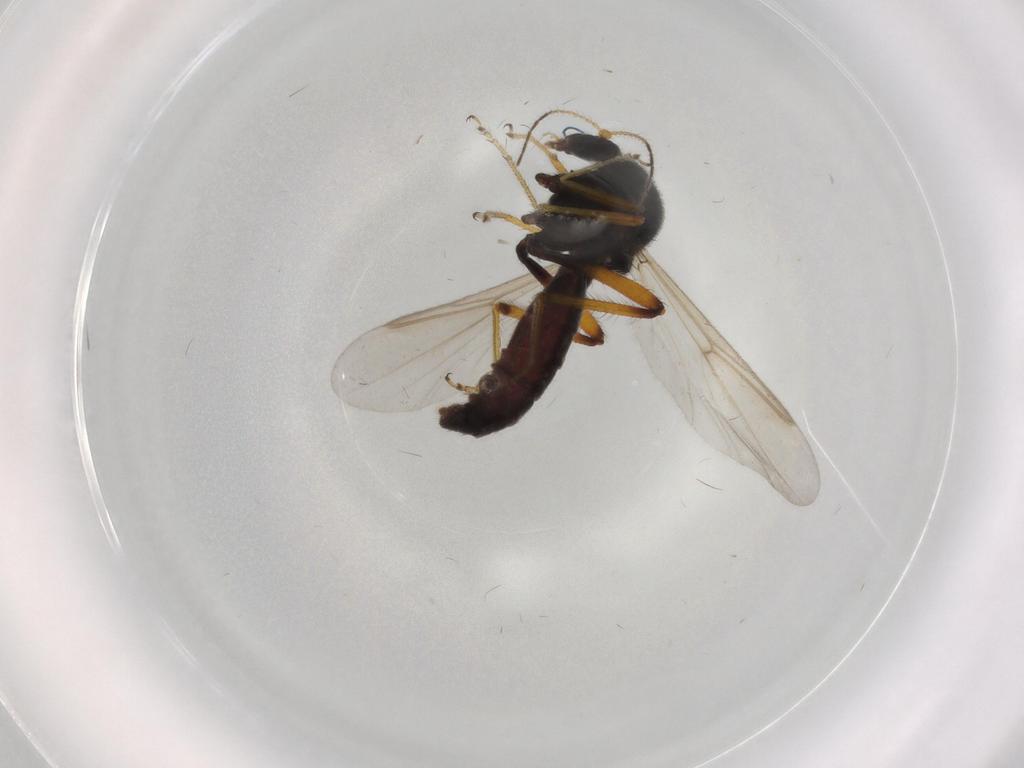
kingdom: Animalia
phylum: Arthropoda
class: Insecta
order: Diptera
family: Ceratopogonidae
